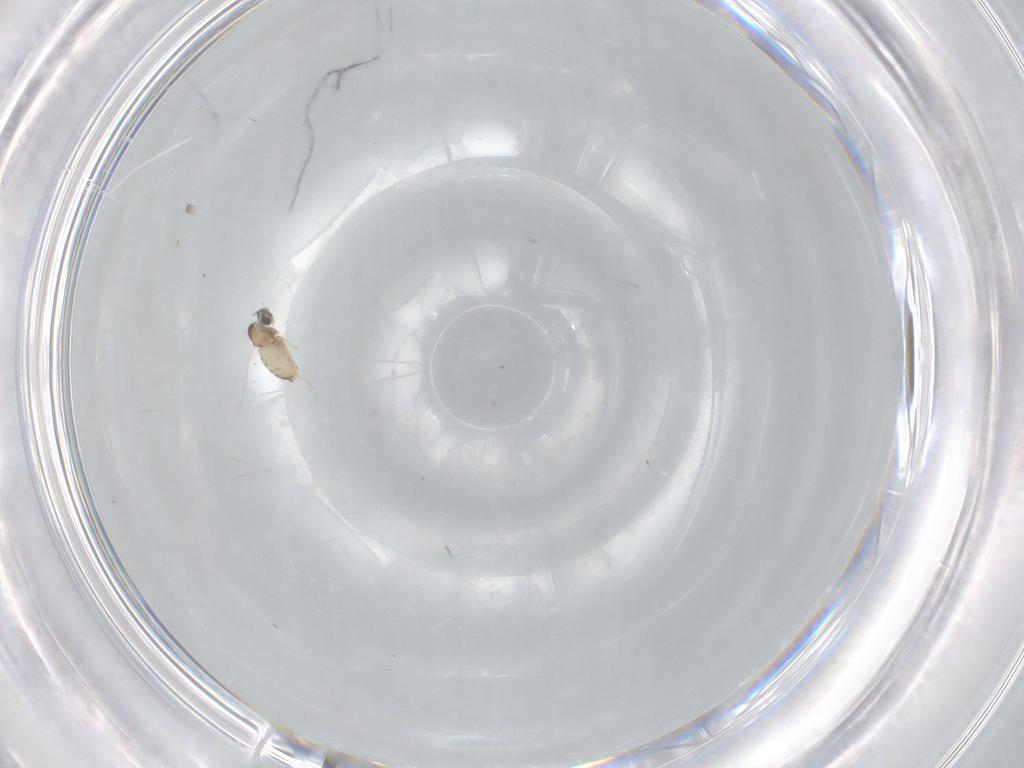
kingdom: Animalia
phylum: Arthropoda
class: Insecta
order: Diptera
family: Cecidomyiidae
